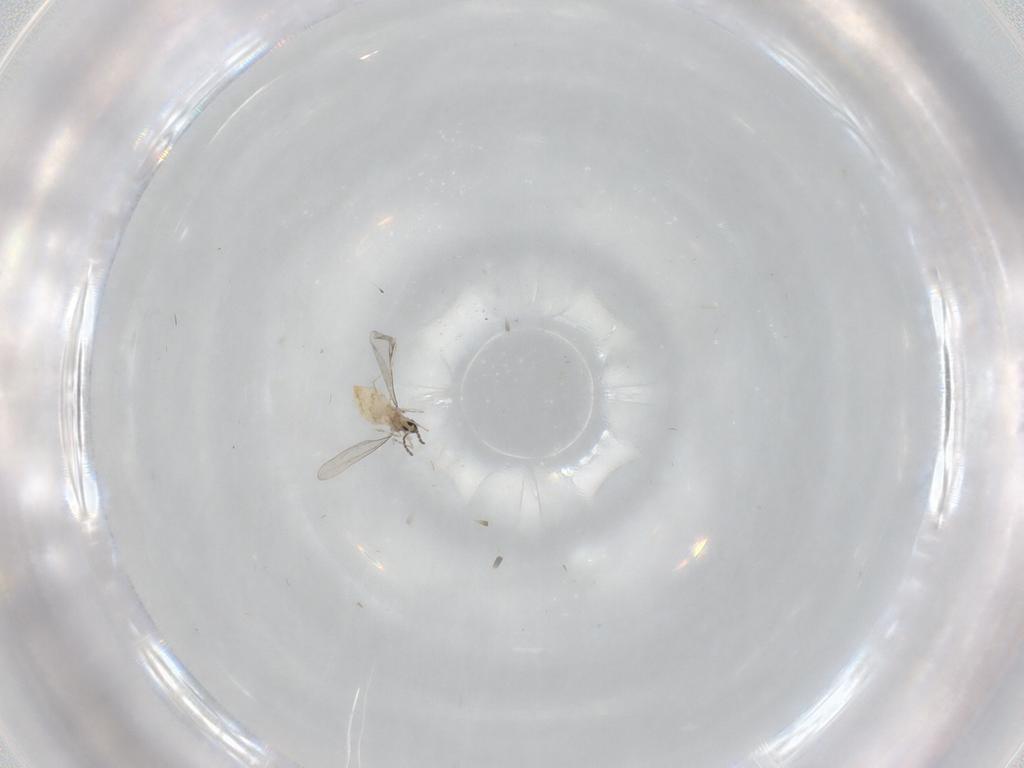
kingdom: Animalia
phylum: Arthropoda
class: Insecta
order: Diptera
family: Cecidomyiidae
